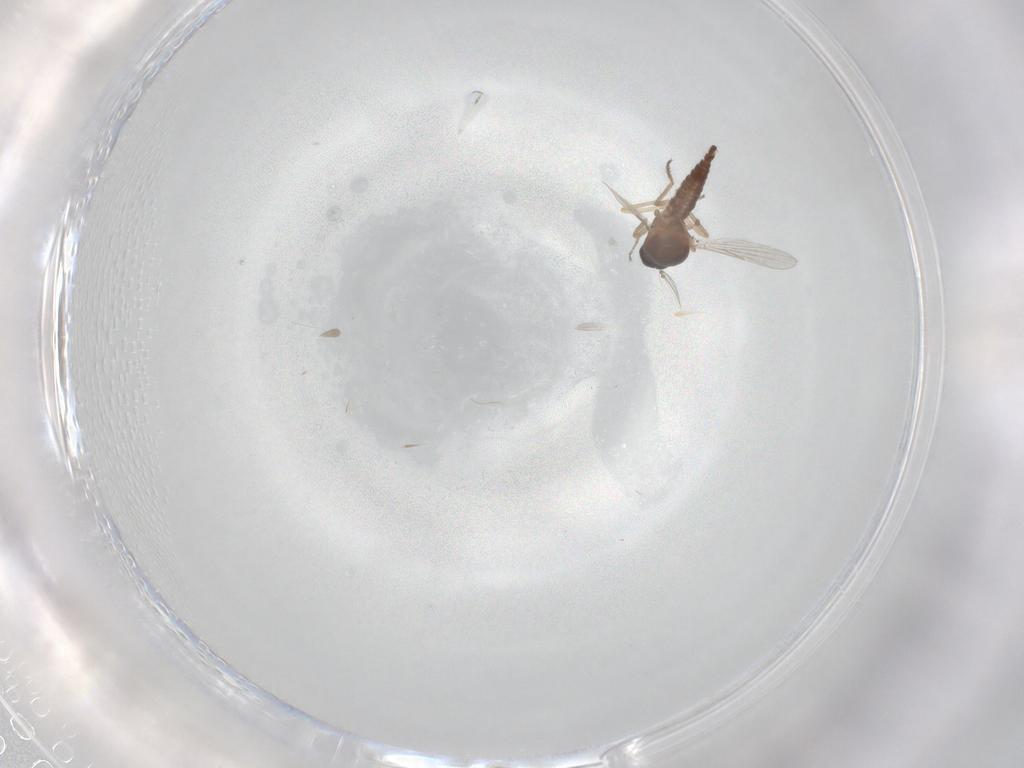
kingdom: Animalia
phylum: Arthropoda
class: Insecta
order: Diptera
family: Ceratopogonidae
